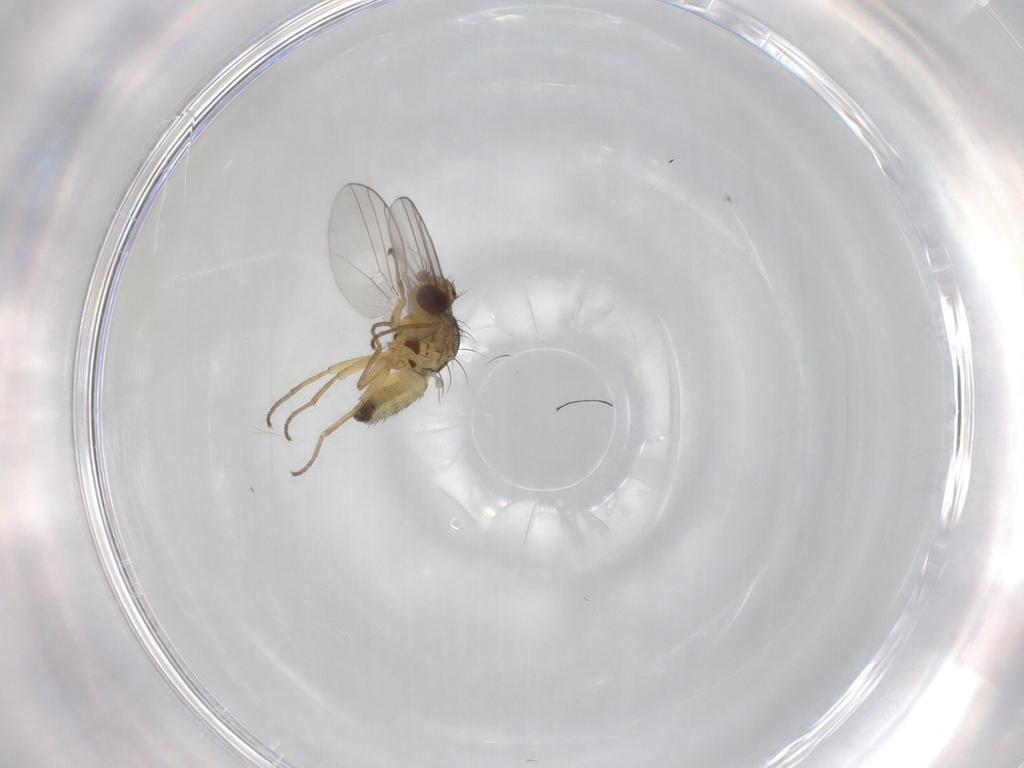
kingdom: Animalia
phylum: Arthropoda
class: Insecta
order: Diptera
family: Agromyzidae
